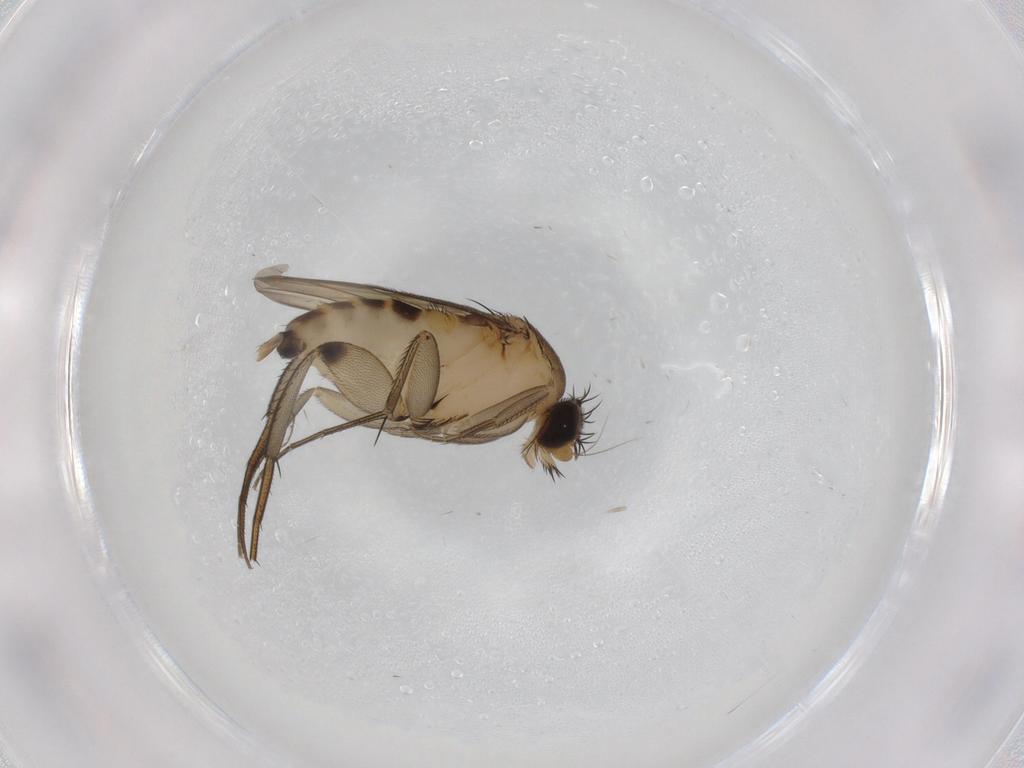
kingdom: Animalia
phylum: Arthropoda
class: Insecta
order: Diptera
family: Phoridae
